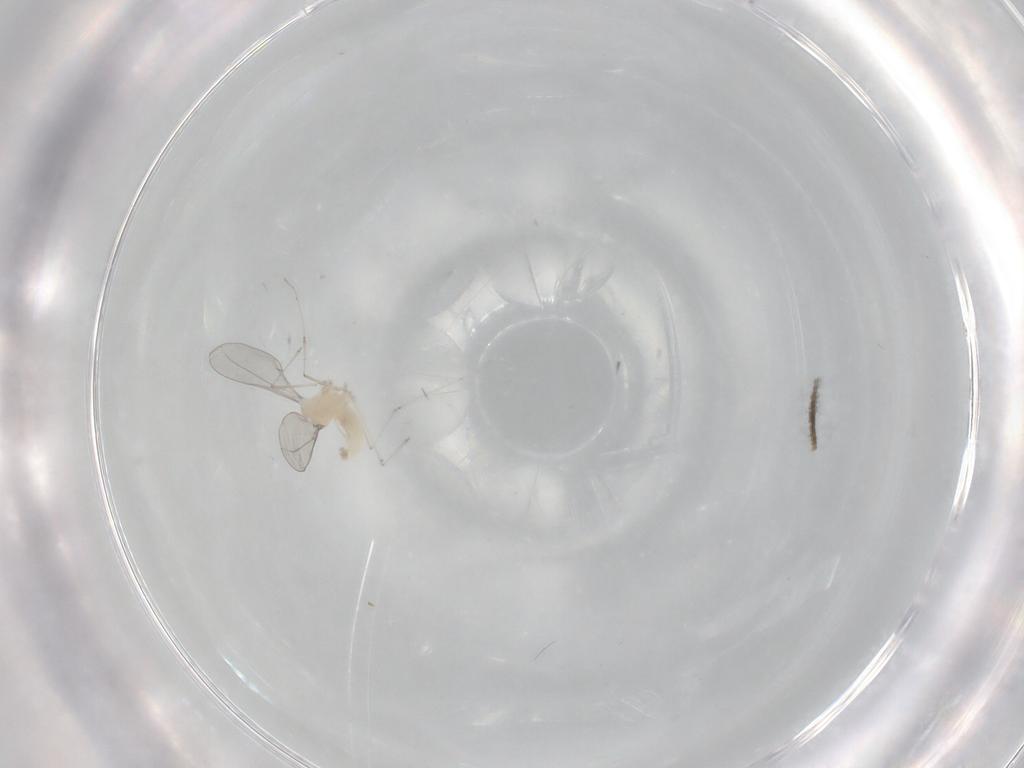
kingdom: Animalia
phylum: Arthropoda
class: Insecta
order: Diptera
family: Cecidomyiidae
